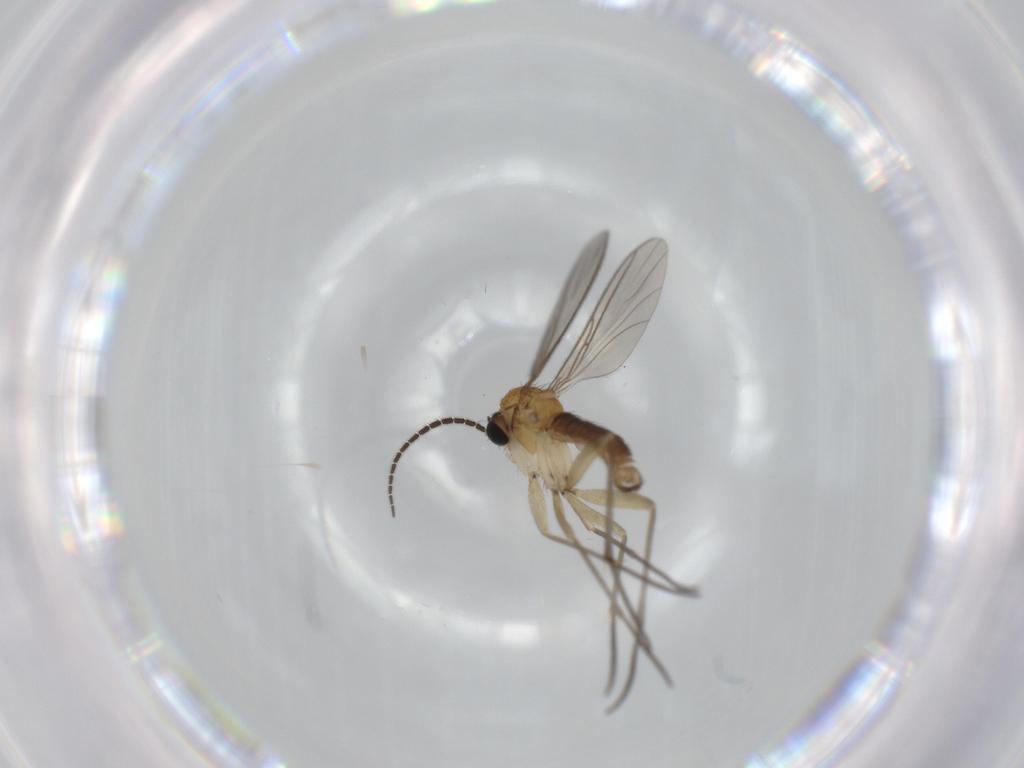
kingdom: Animalia
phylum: Arthropoda
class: Insecta
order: Diptera
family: Sciaridae
